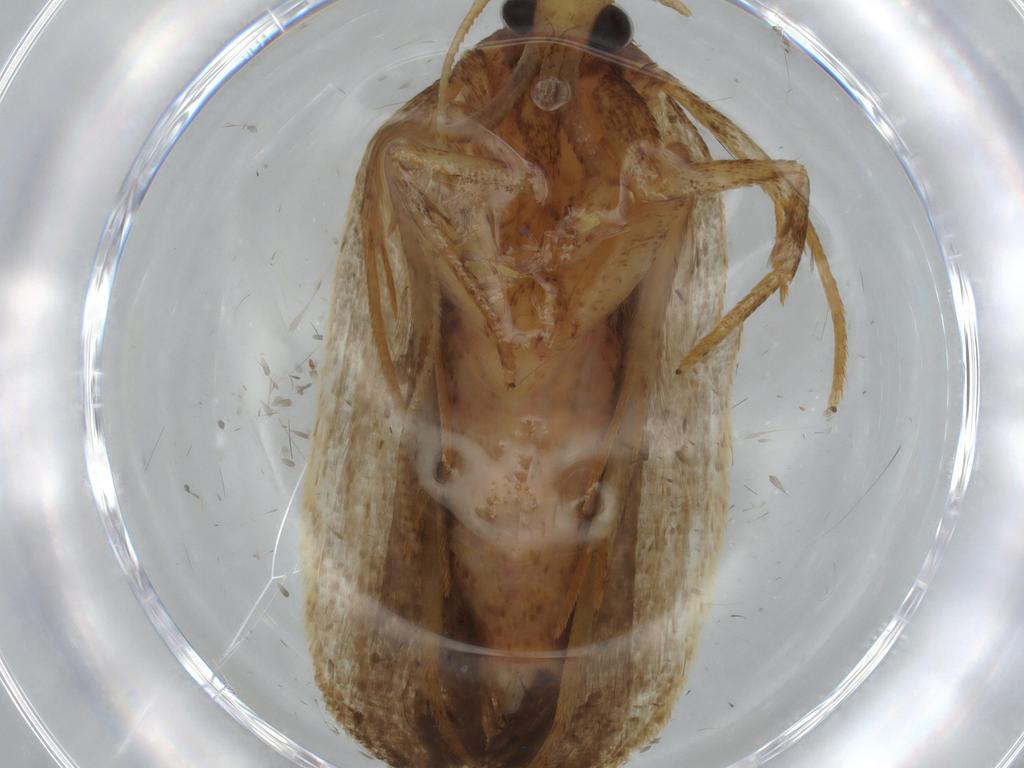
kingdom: Animalia
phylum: Arthropoda
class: Insecta
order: Lepidoptera
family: Autostichidae
